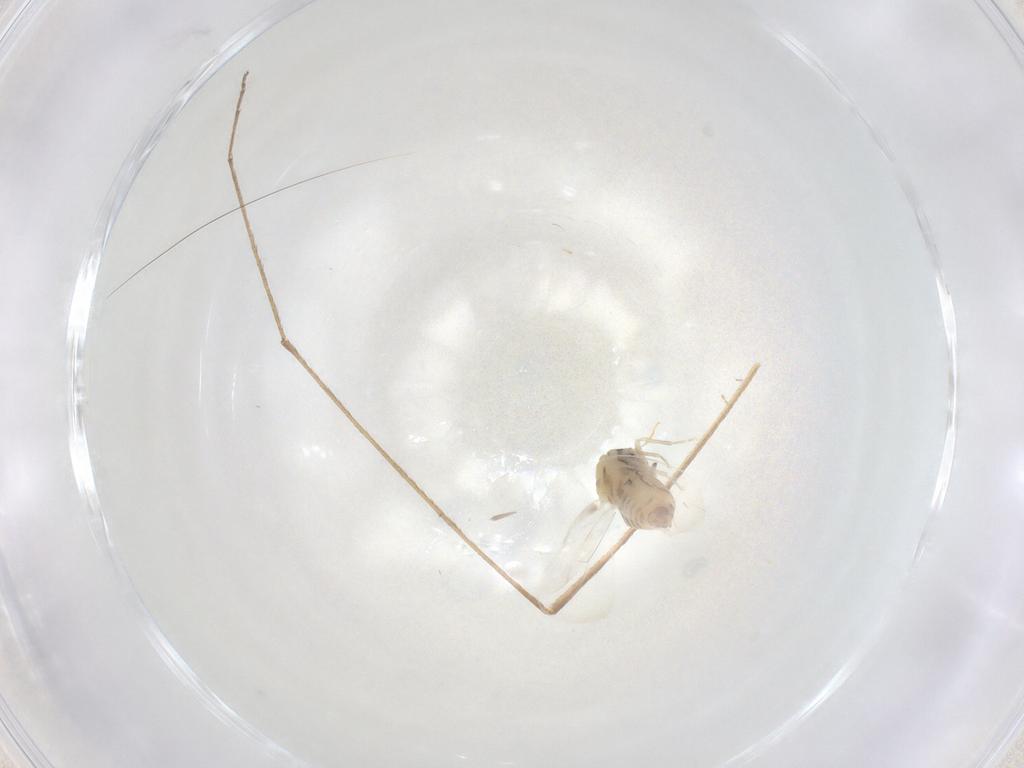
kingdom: Animalia
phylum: Arthropoda
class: Insecta
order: Diptera
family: Limoniidae
